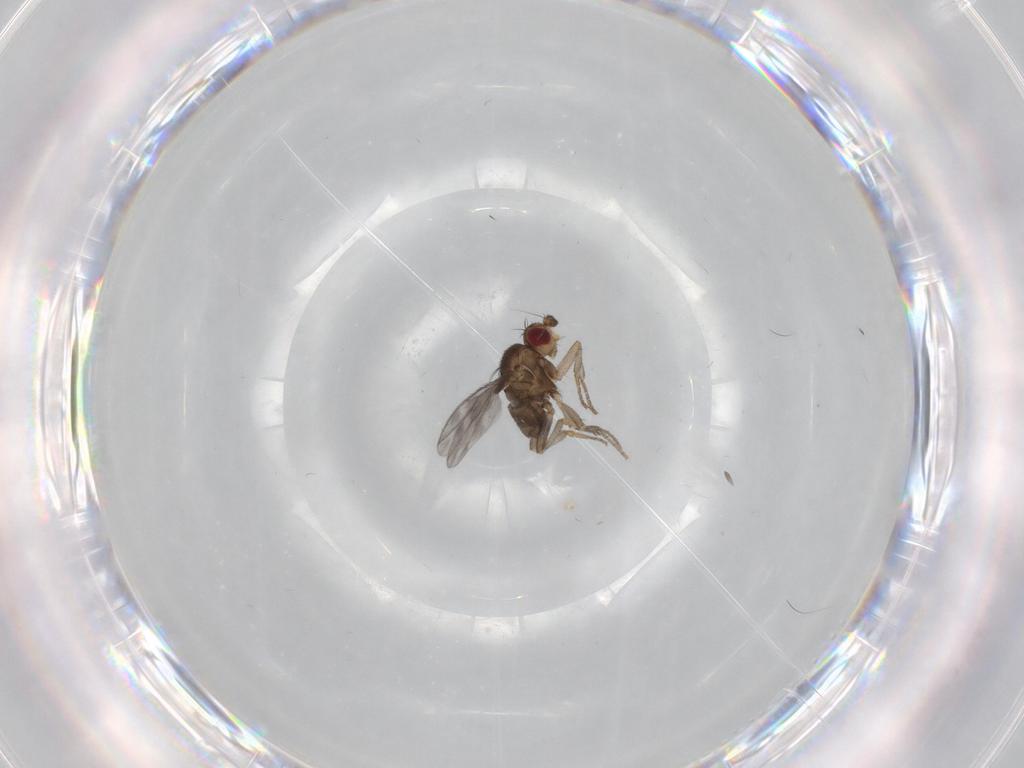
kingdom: Animalia
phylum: Arthropoda
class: Insecta
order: Diptera
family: Sphaeroceridae
